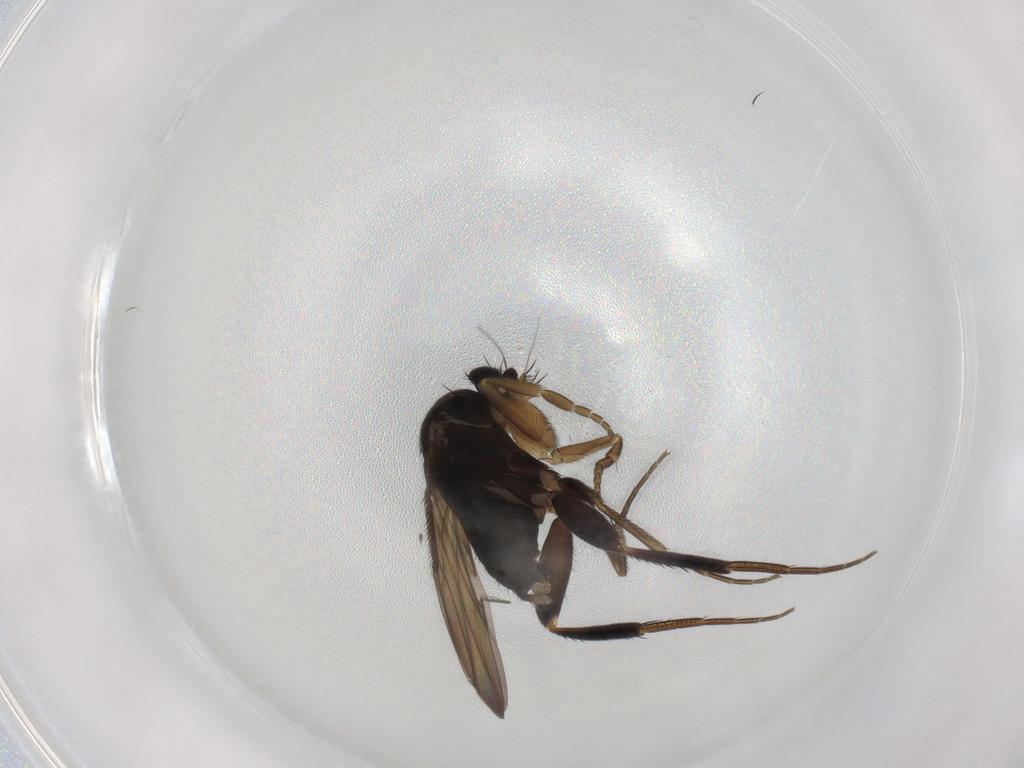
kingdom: Animalia
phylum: Arthropoda
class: Insecta
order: Diptera
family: Phoridae
